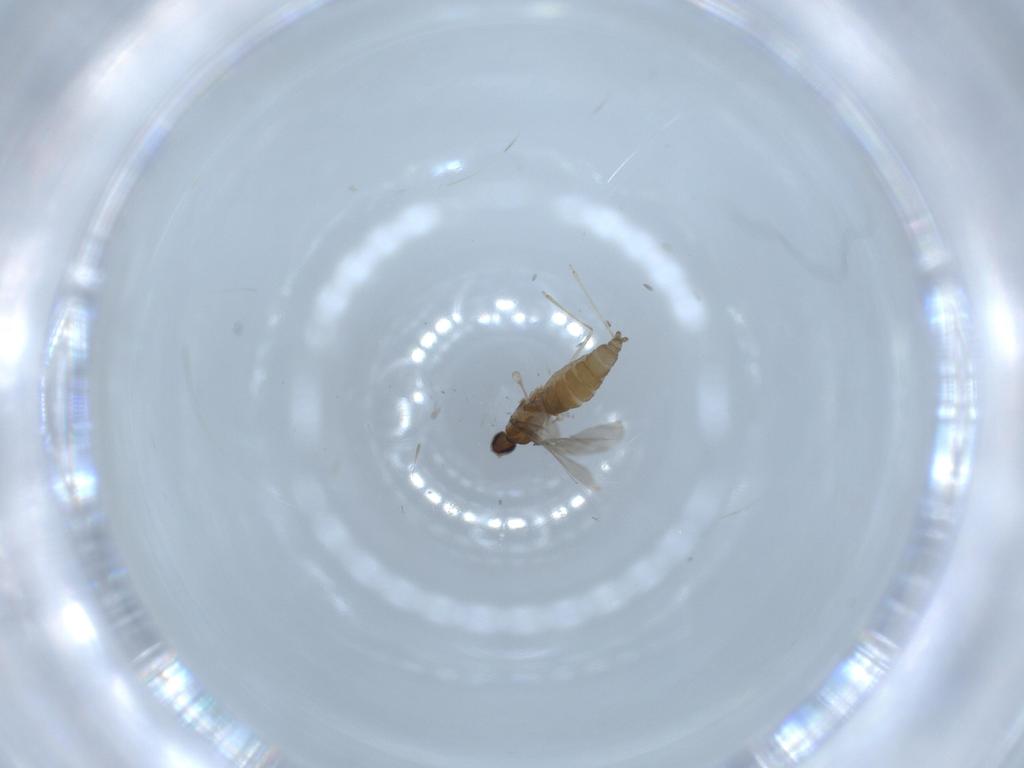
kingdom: Animalia
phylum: Arthropoda
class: Insecta
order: Diptera
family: Cecidomyiidae
